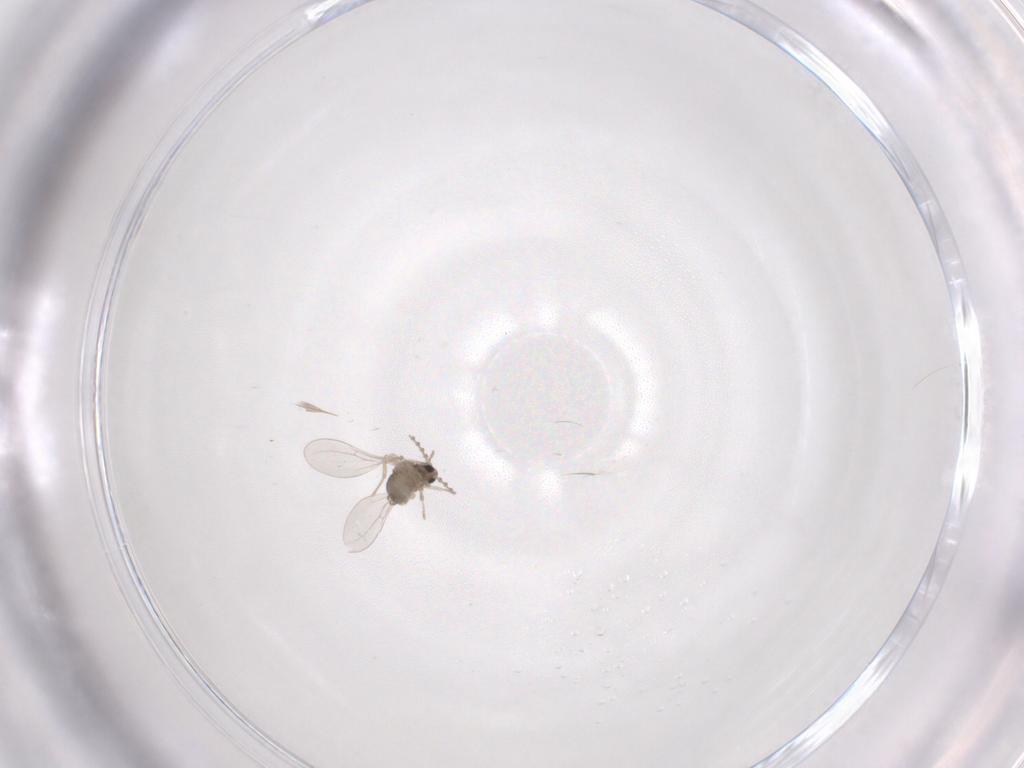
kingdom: Animalia
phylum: Arthropoda
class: Insecta
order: Diptera
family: Cecidomyiidae
